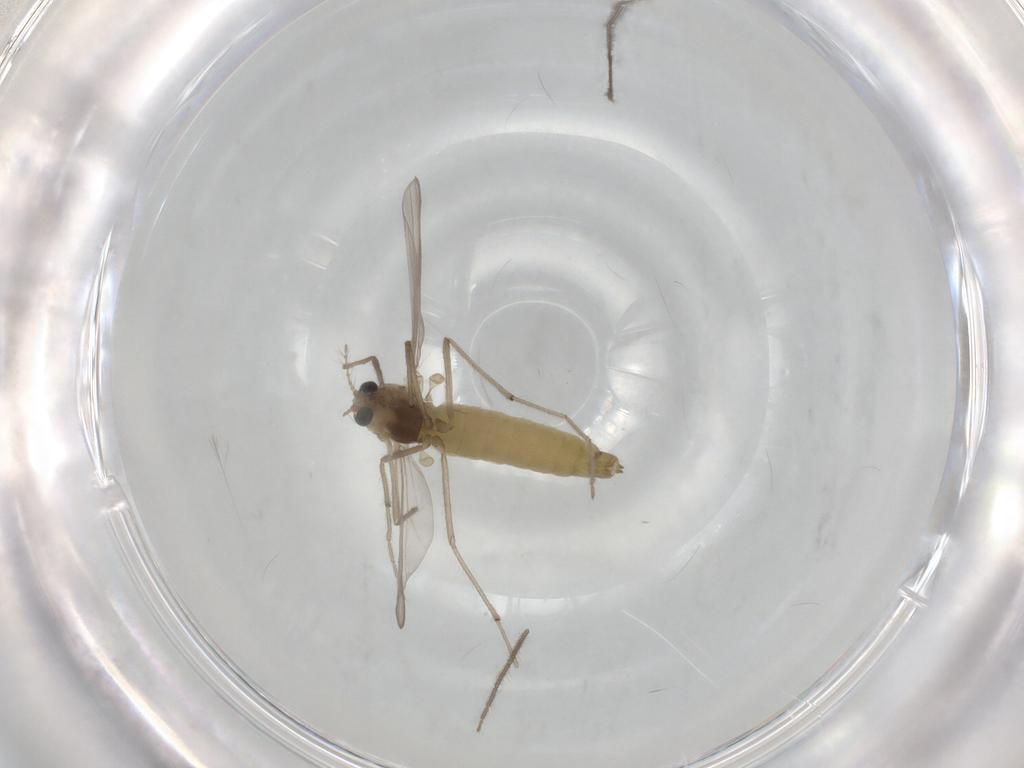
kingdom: Animalia
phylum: Arthropoda
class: Insecta
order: Diptera
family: Chironomidae
